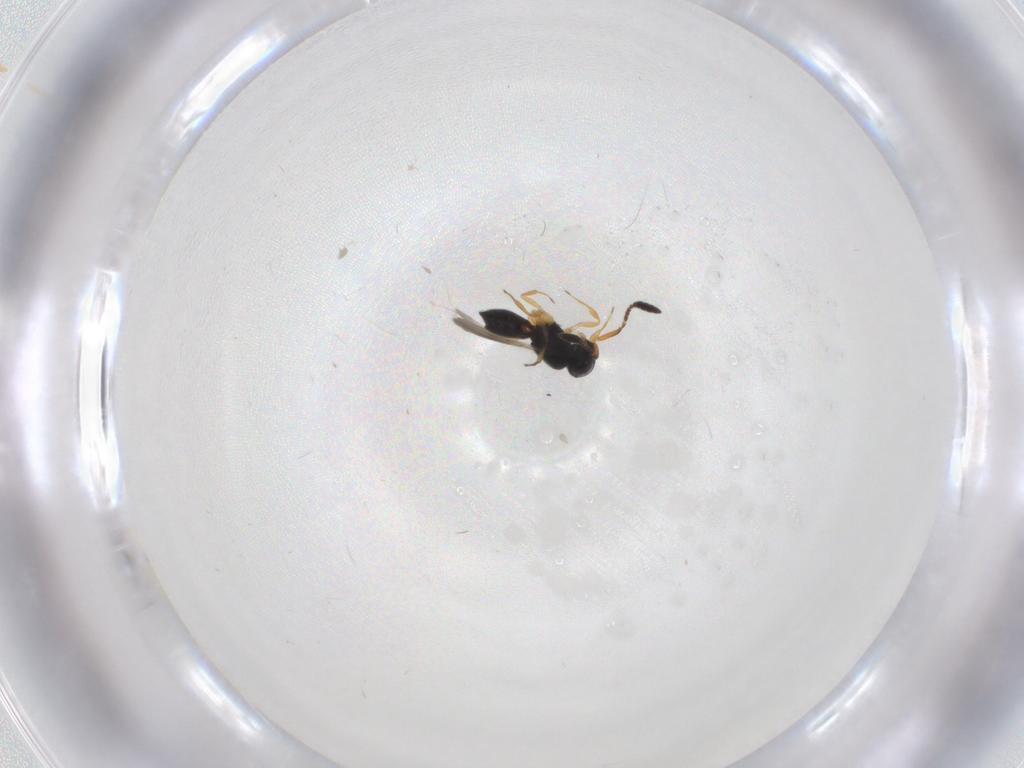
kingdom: Animalia
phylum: Arthropoda
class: Insecta
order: Hymenoptera
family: Scelionidae
